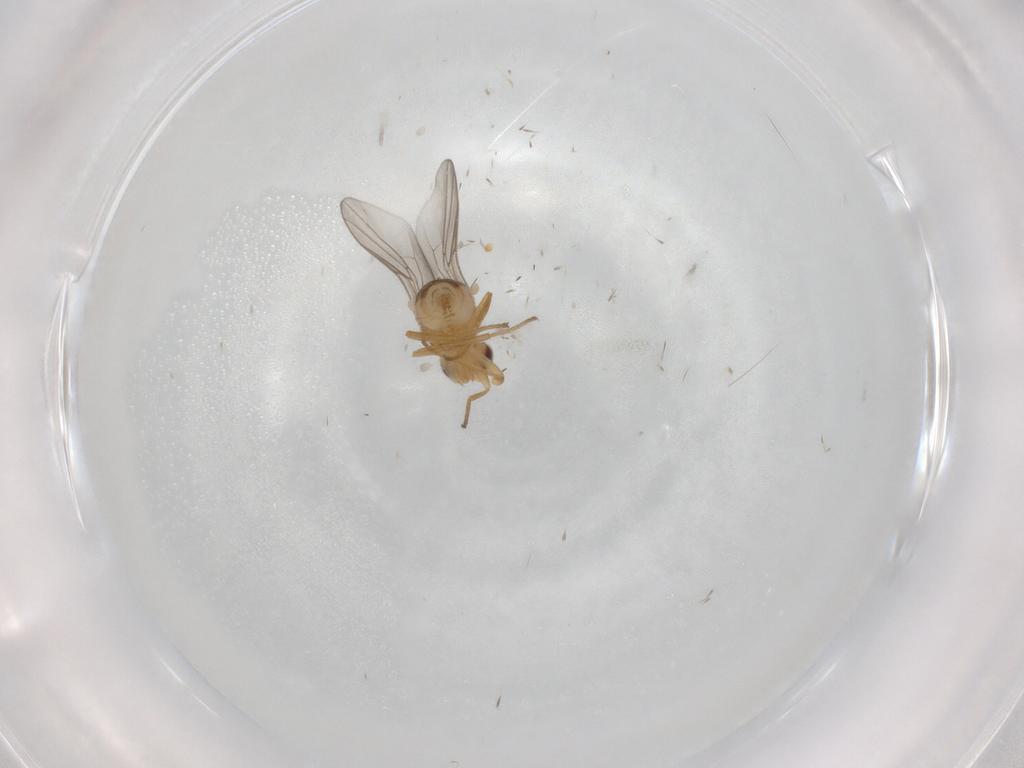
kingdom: Animalia
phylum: Arthropoda
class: Insecta
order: Diptera
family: Chloropidae
